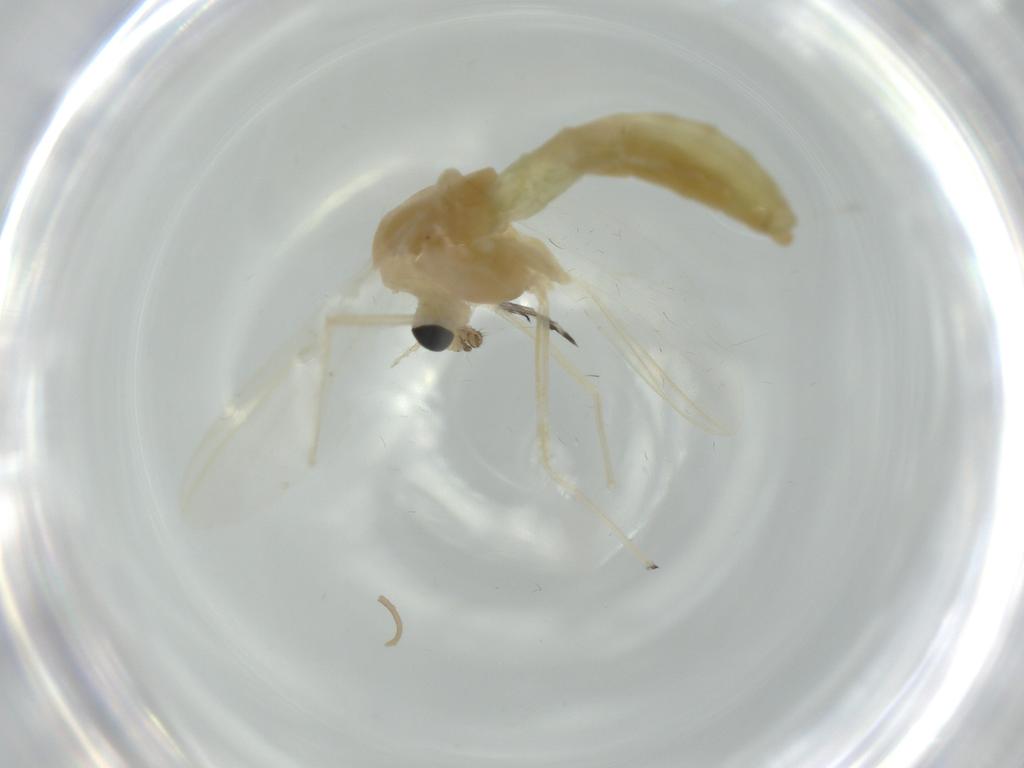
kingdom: Animalia
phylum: Arthropoda
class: Insecta
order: Diptera
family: Chironomidae
